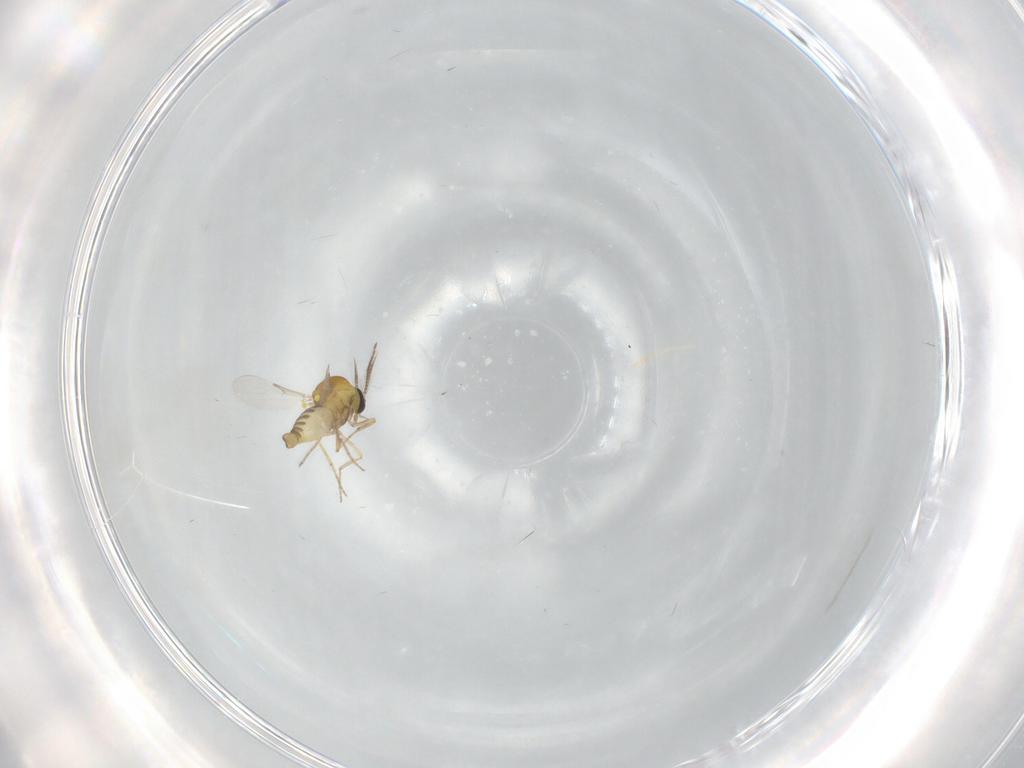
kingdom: Animalia
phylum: Arthropoda
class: Insecta
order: Diptera
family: Ceratopogonidae
